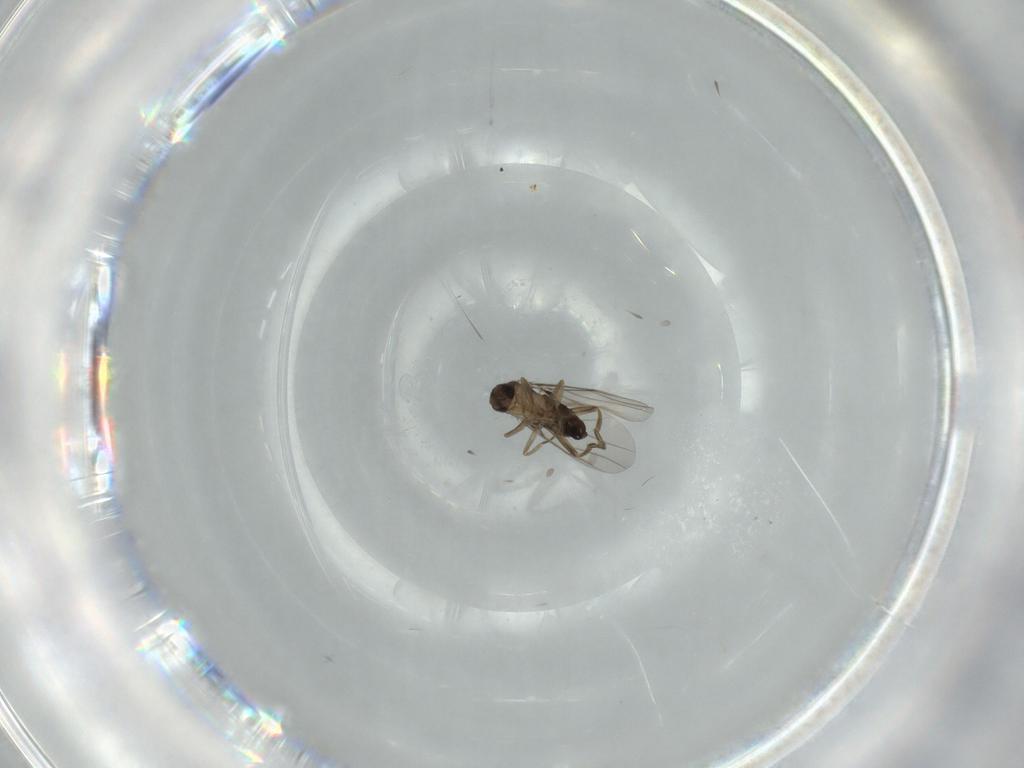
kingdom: Animalia
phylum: Arthropoda
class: Insecta
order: Diptera
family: Phoridae
